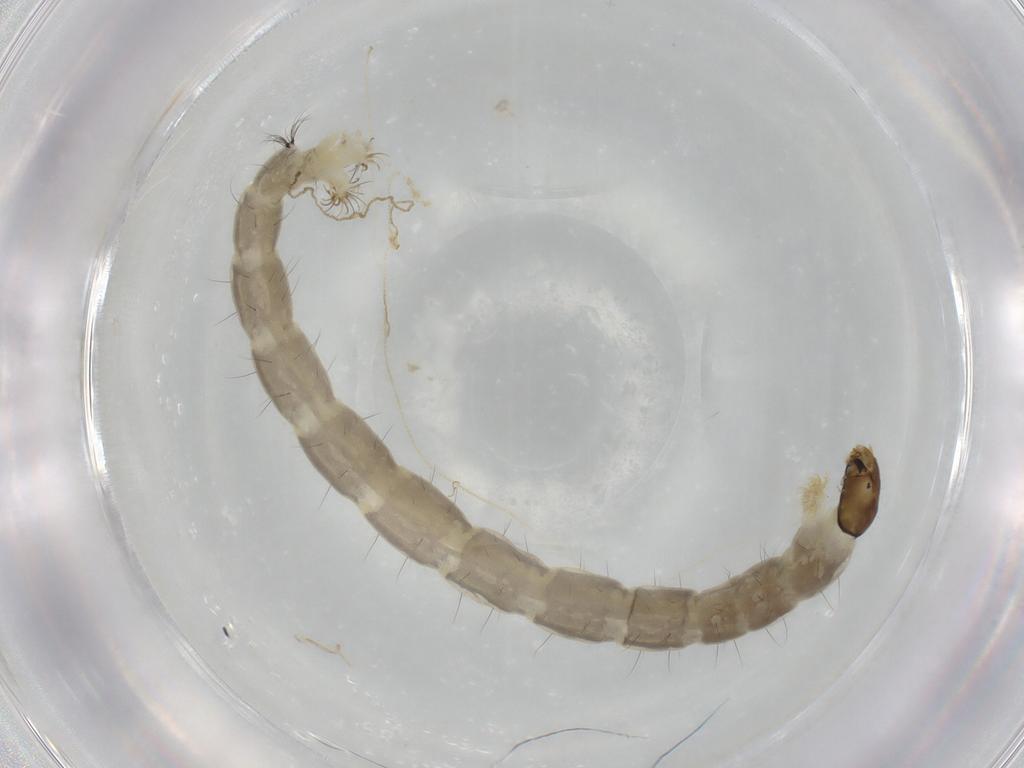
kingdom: Animalia
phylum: Arthropoda
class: Insecta
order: Diptera
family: Chironomidae
